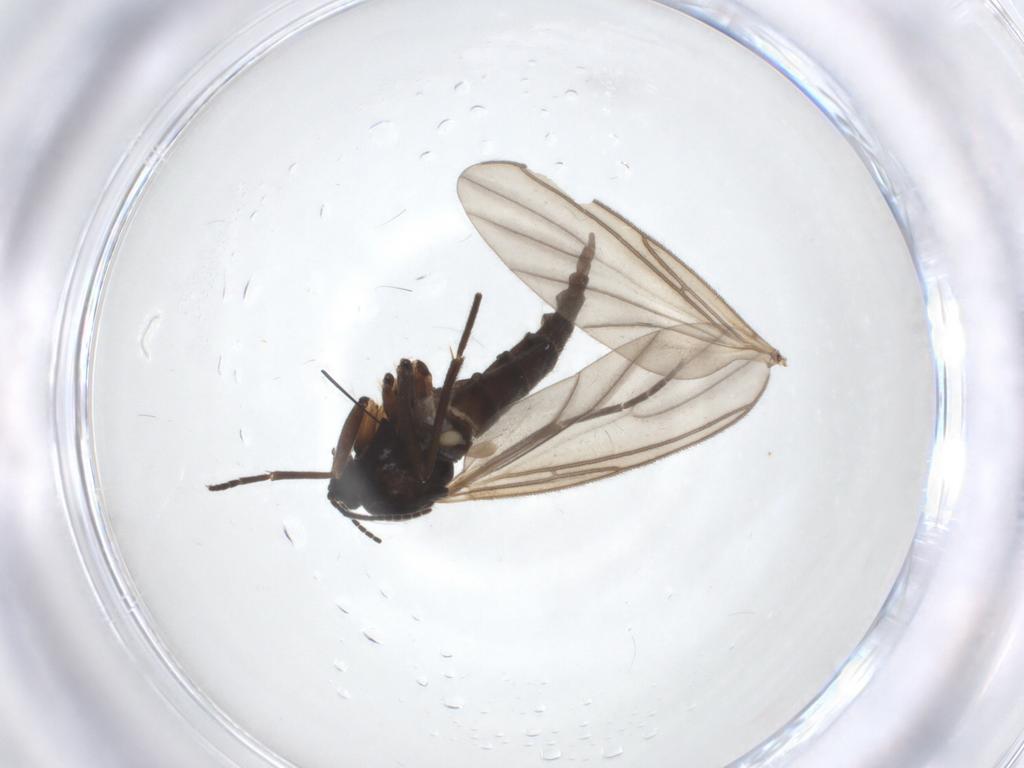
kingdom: Animalia
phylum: Arthropoda
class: Insecta
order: Diptera
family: Sciaridae
